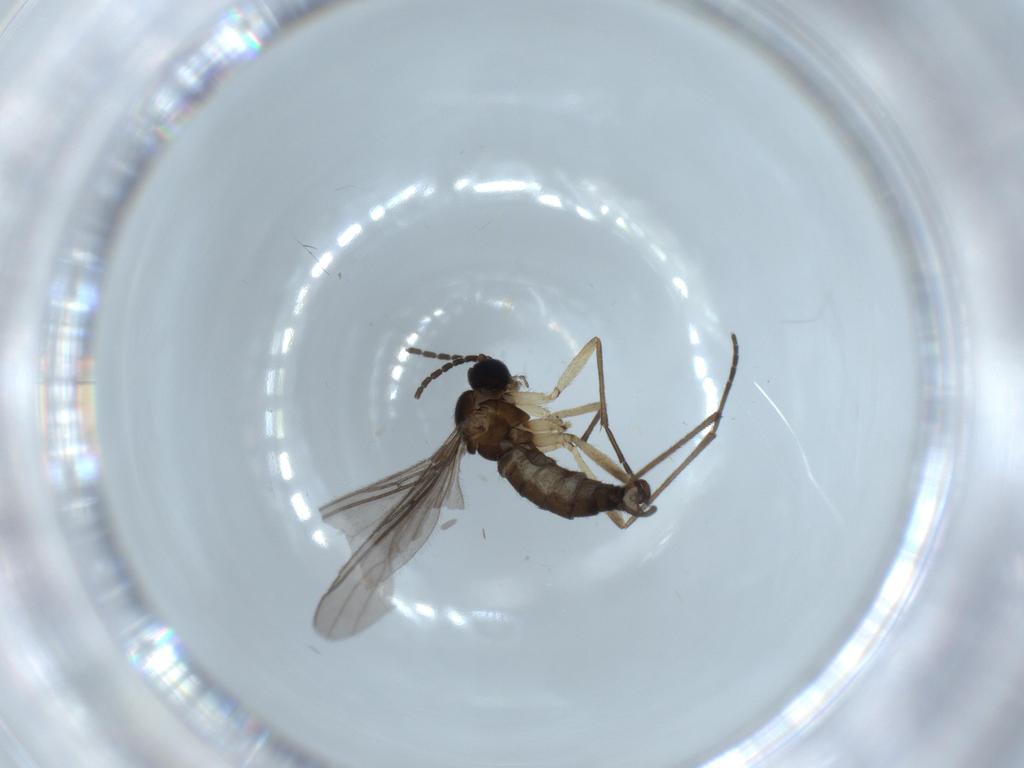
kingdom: Animalia
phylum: Arthropoda
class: Insecta
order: Diptera
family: Sciaridae
